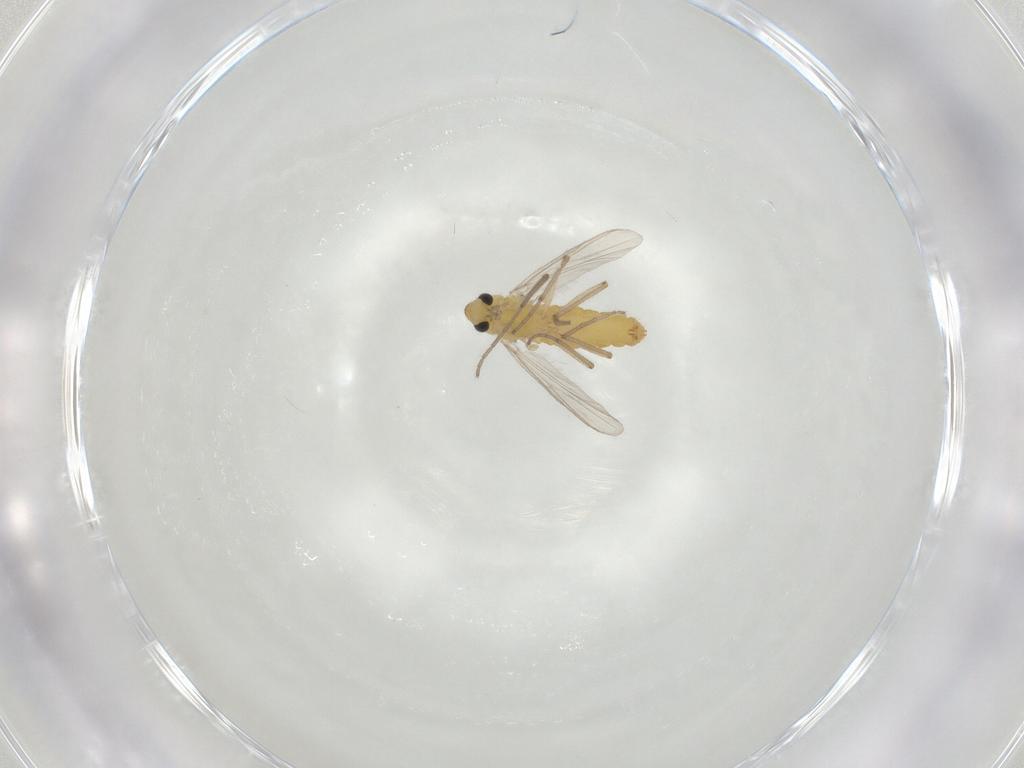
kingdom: Animalia
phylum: Arthropoda
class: Insecta
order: Diptera
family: Chironomidae
